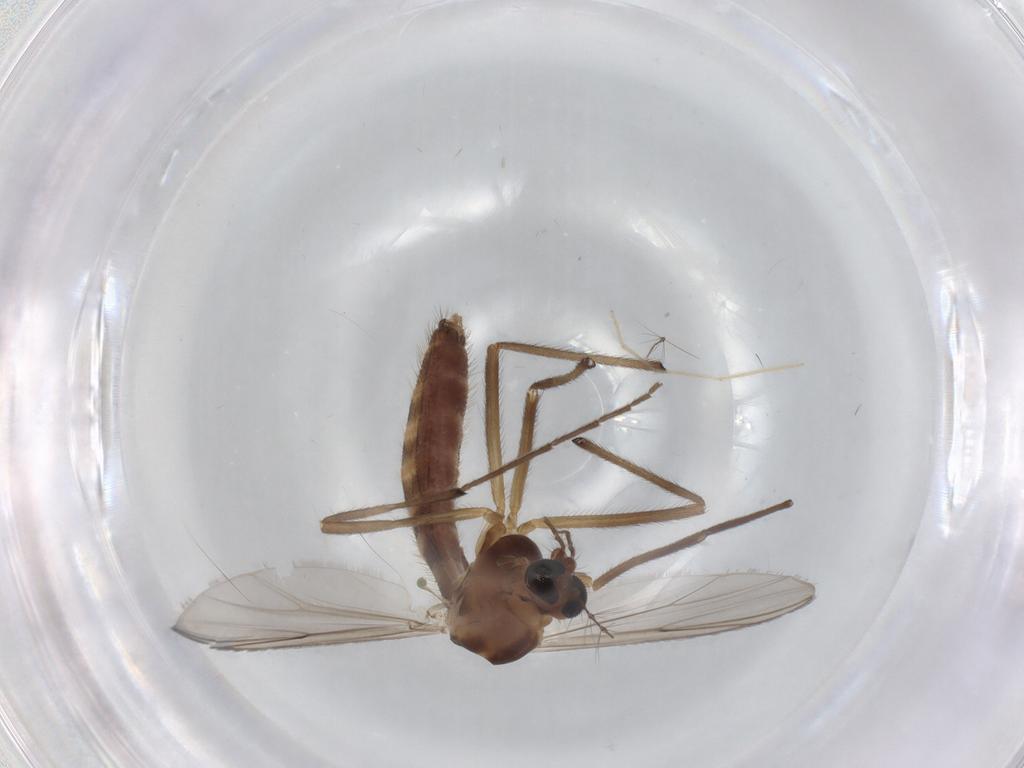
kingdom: Animalia
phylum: Arthropoda
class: Insecta
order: Diptera
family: Chironomidae
